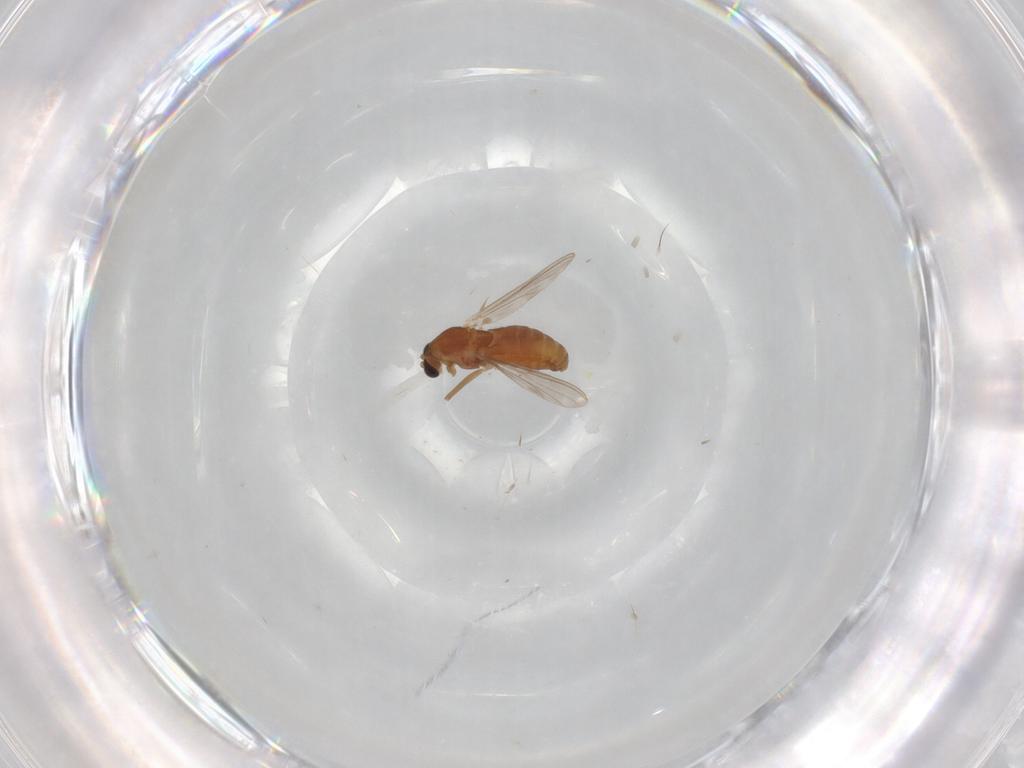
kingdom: Animalia
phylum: Arthropoda
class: Insecta
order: Diptera
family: Chironomidae
